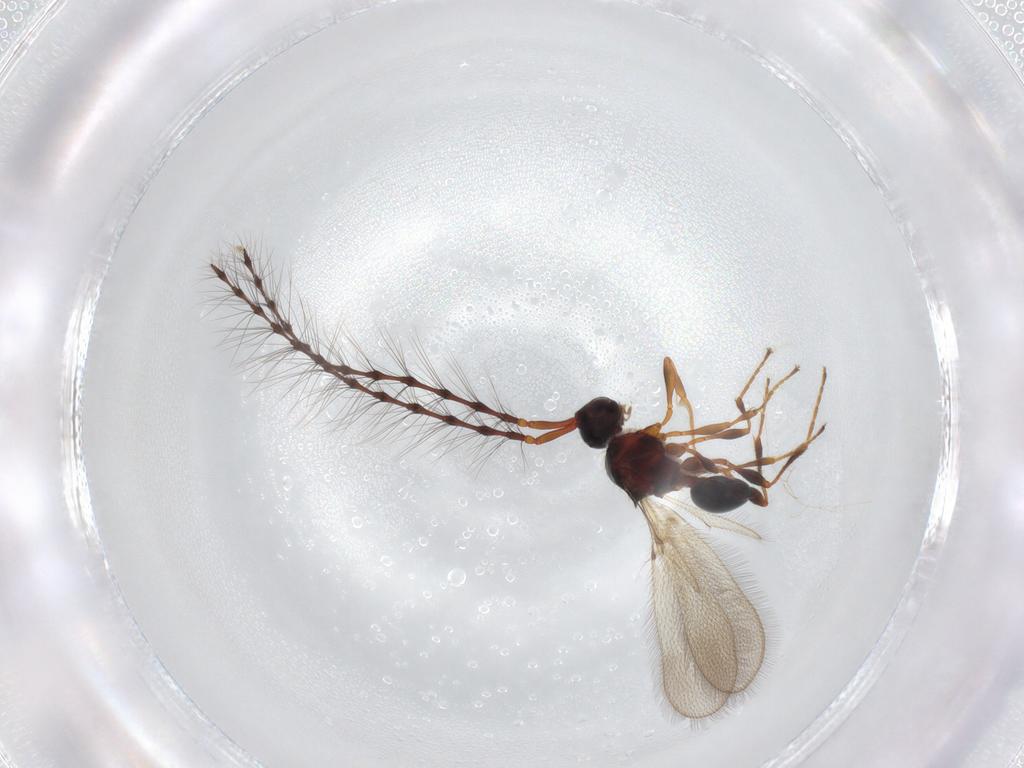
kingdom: Animalia
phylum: Arthropoda
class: Insecta
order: Hymenoptera
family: Diapriidae
